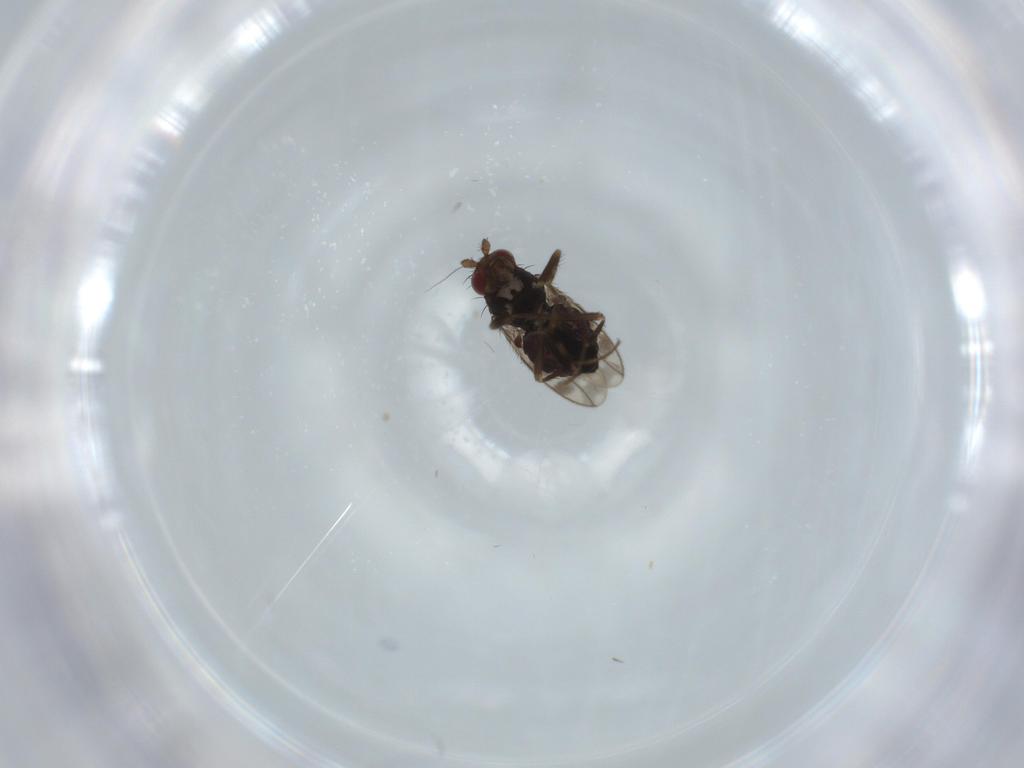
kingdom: Animalia
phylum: Arthropoda
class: Insecta
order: Diptera
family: Sphaeroceridae
